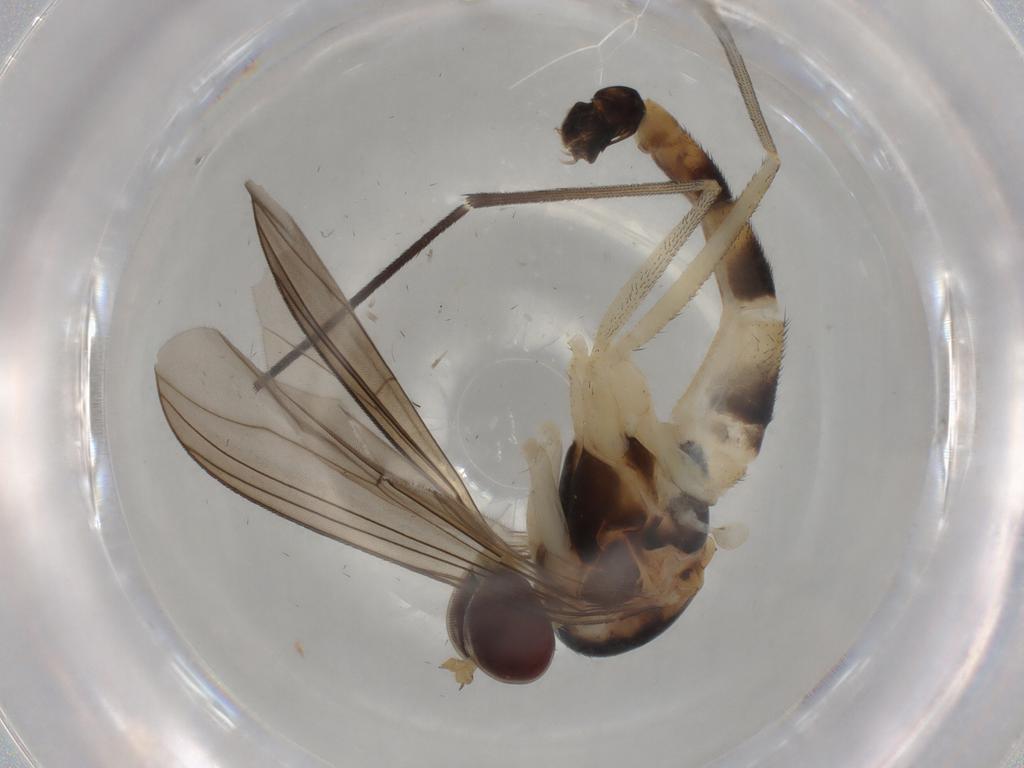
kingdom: Animalia
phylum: Arthropoda
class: Insecta
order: Diptera
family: Muscidae
